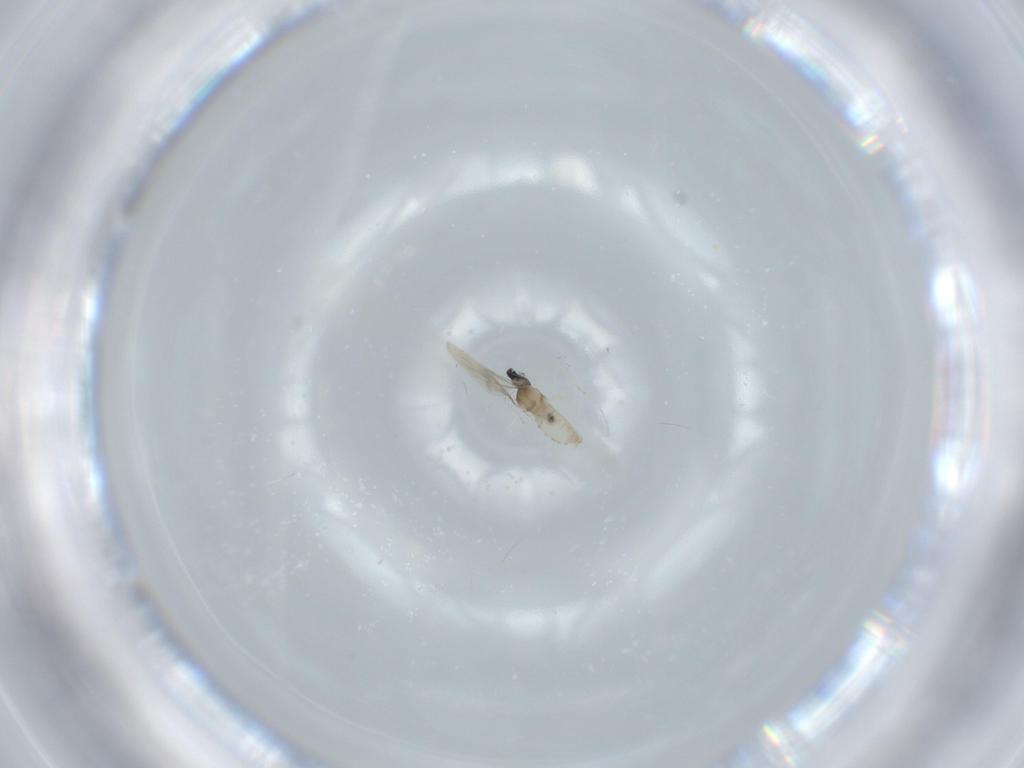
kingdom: Animalia
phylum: Arthropoda
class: Insecta
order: Diptera
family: Cecidomyiidae
